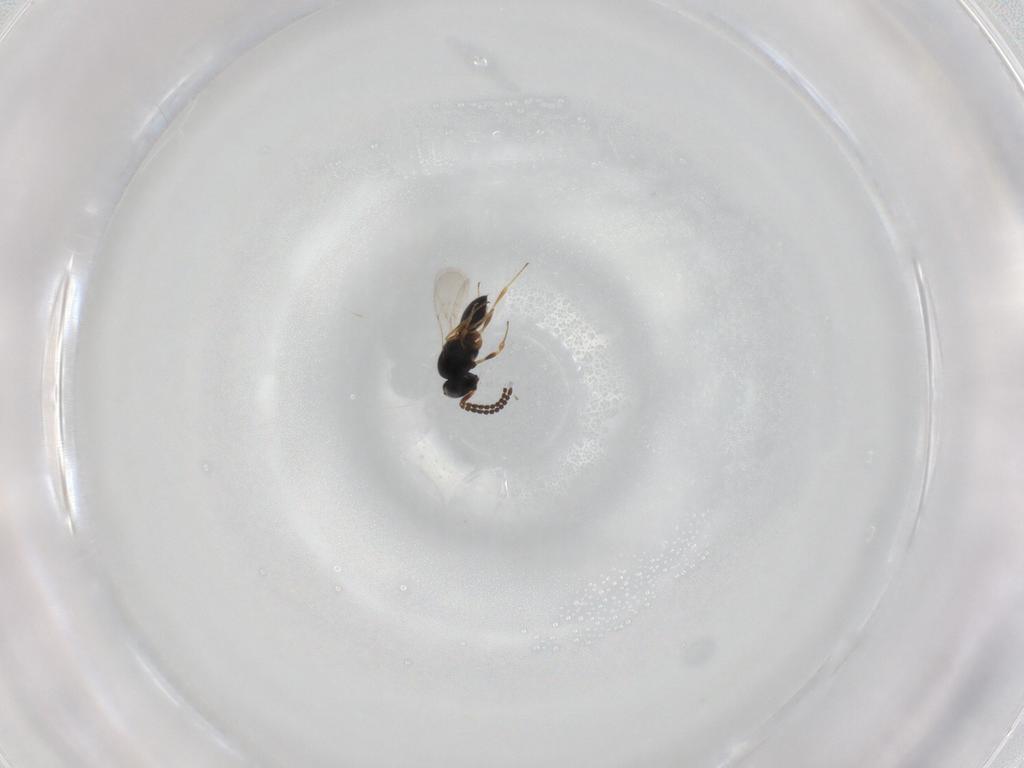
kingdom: Animalia
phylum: Arthropoda
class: Insecta
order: Hymenoptera
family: Scelionidae
